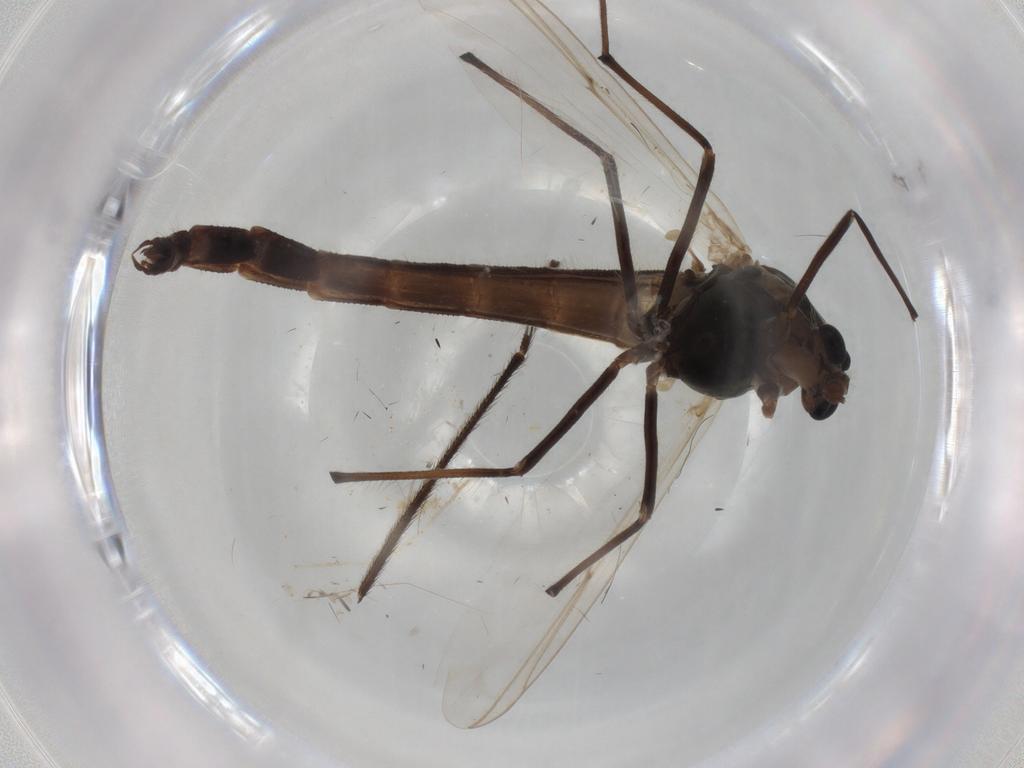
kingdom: Animalia
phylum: Arthropoda
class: Insecta
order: Diptera
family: Chironomidae
